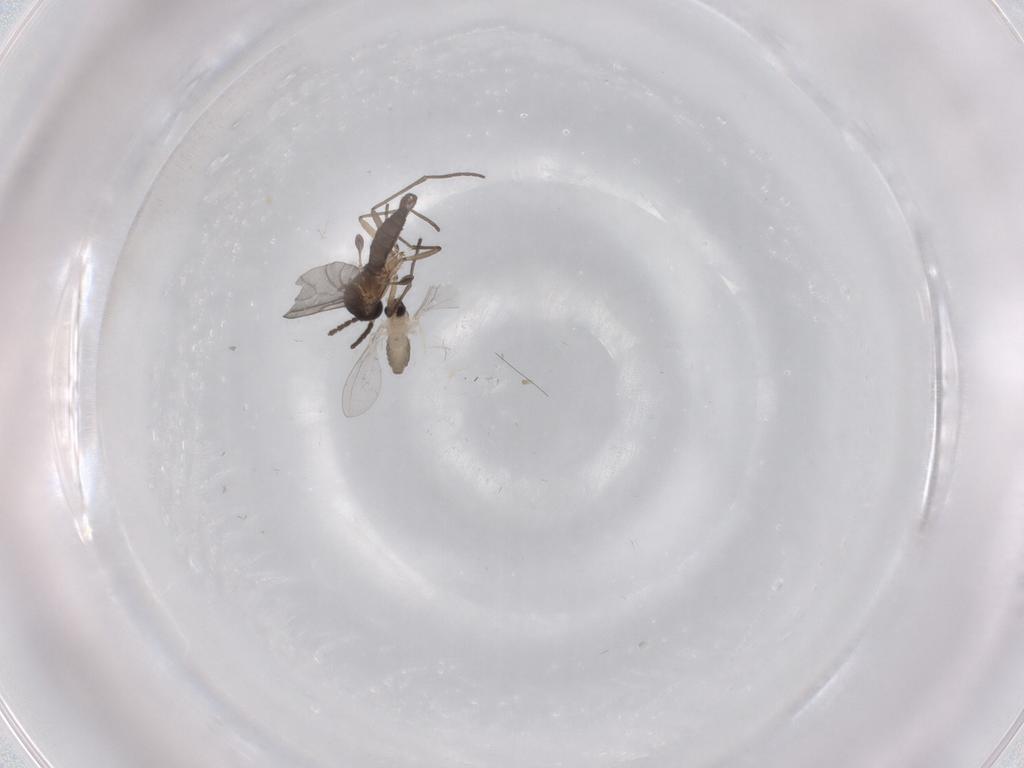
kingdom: Animalia
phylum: Arthropoda
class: Insecta
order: Diptera
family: Sciaridae
